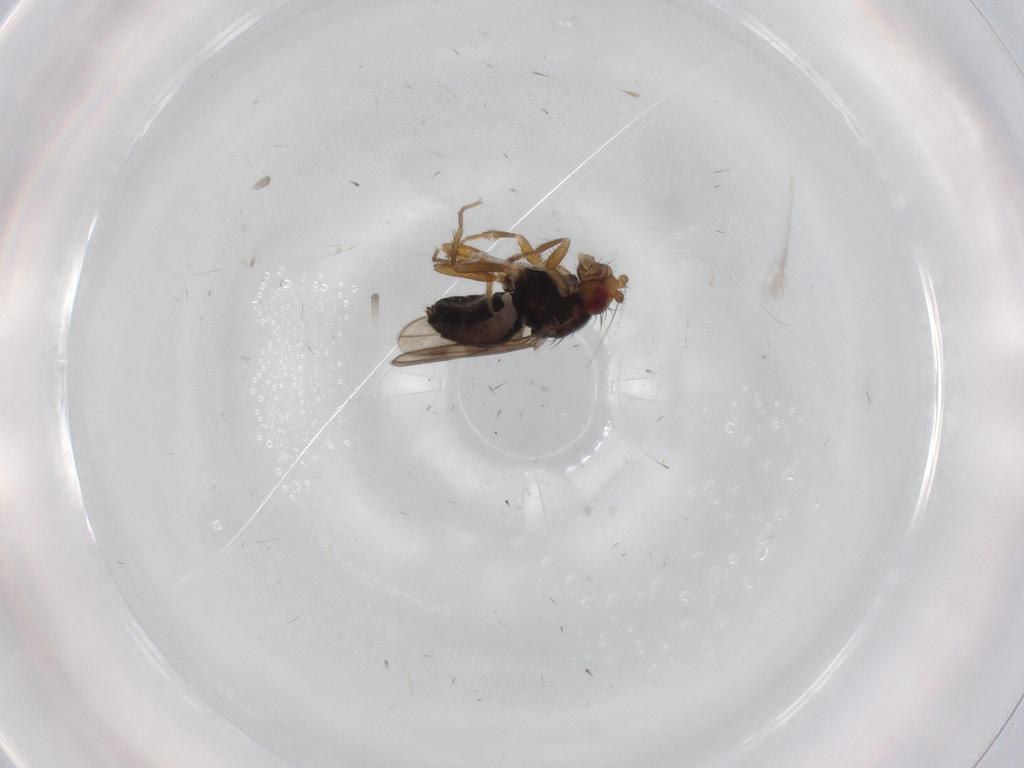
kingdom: Animalia
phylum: Arthropoda
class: Insecta
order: Diptera
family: Sphaeroceridae
